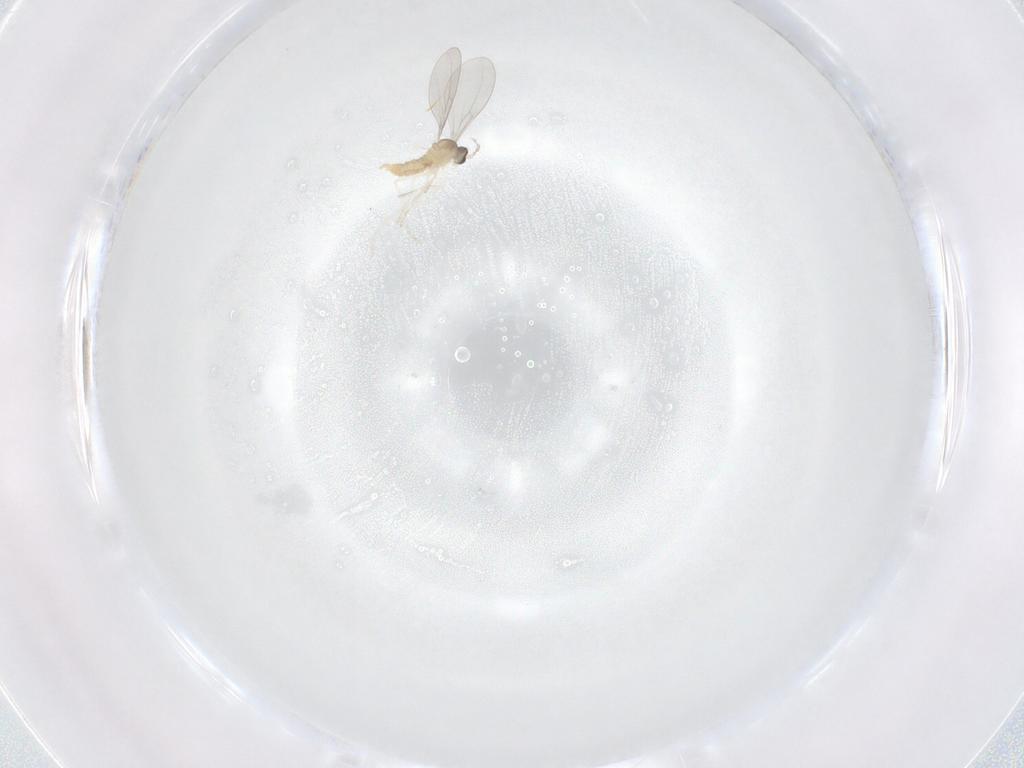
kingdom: Animalia
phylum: Arthropoda
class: Insecta
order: Diptera
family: Cecidomyiidae
